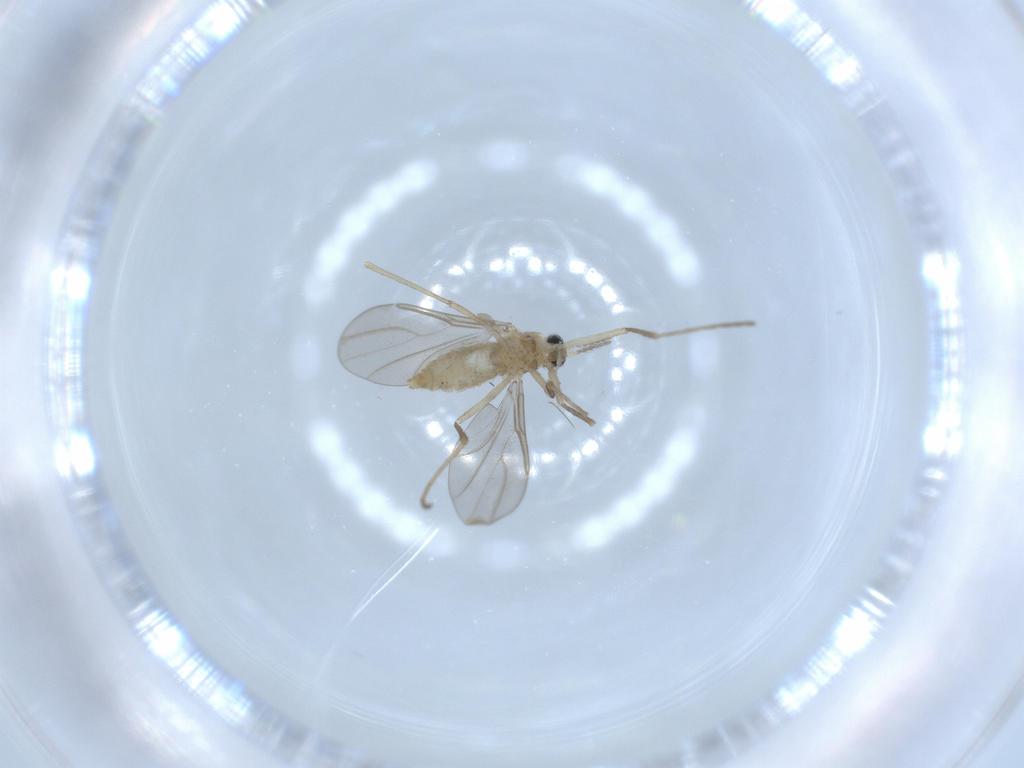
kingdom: Animalia
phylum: Arthropoda
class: Insecta
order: Diptera
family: Cecidomyiidae
